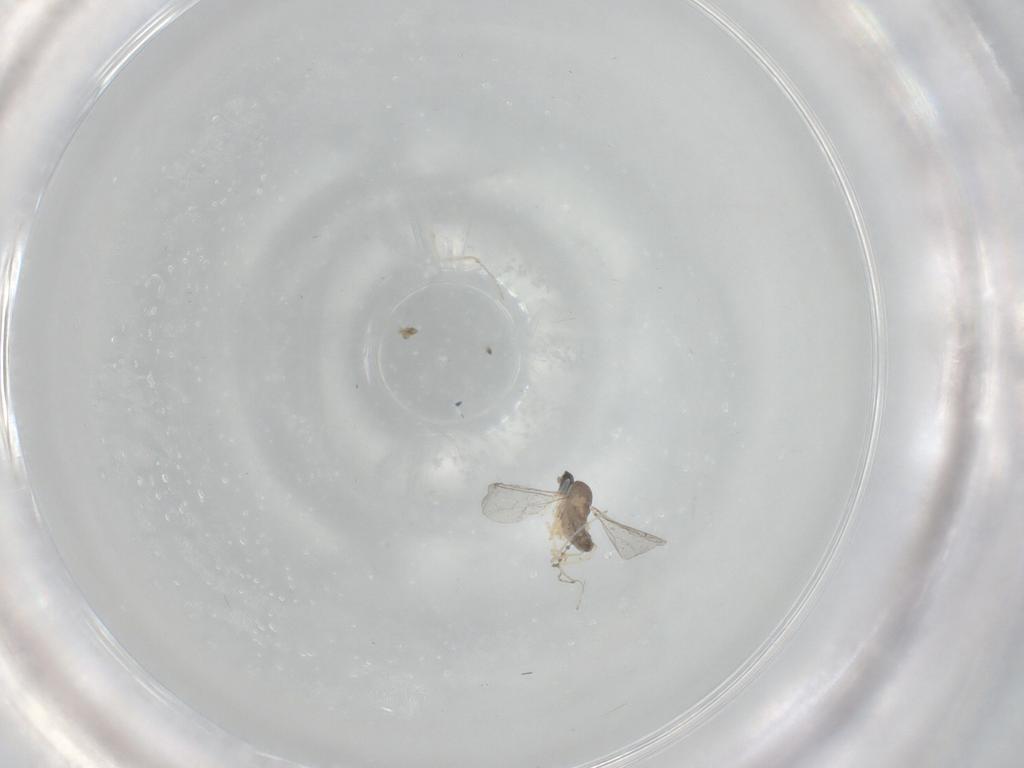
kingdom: Animalia
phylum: Arthropoda
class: Insecta
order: Diptera
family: Cecidomyiidae
